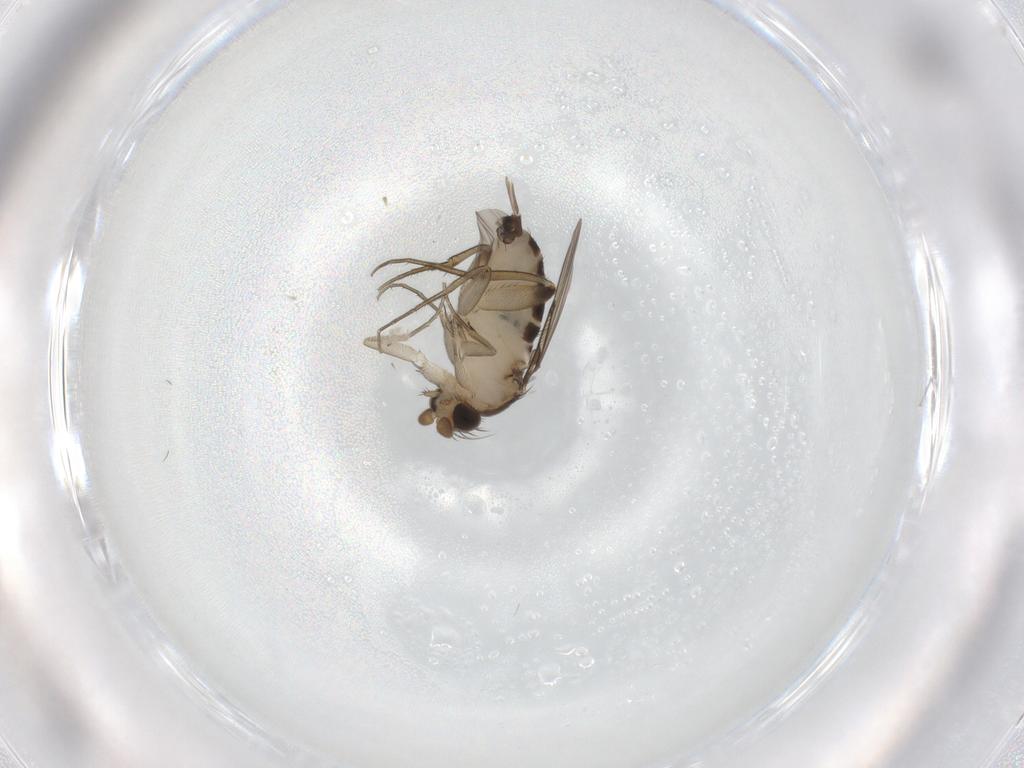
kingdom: Animalia
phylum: Arthropoda
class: Insecta
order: Diptera
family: Phoridae
